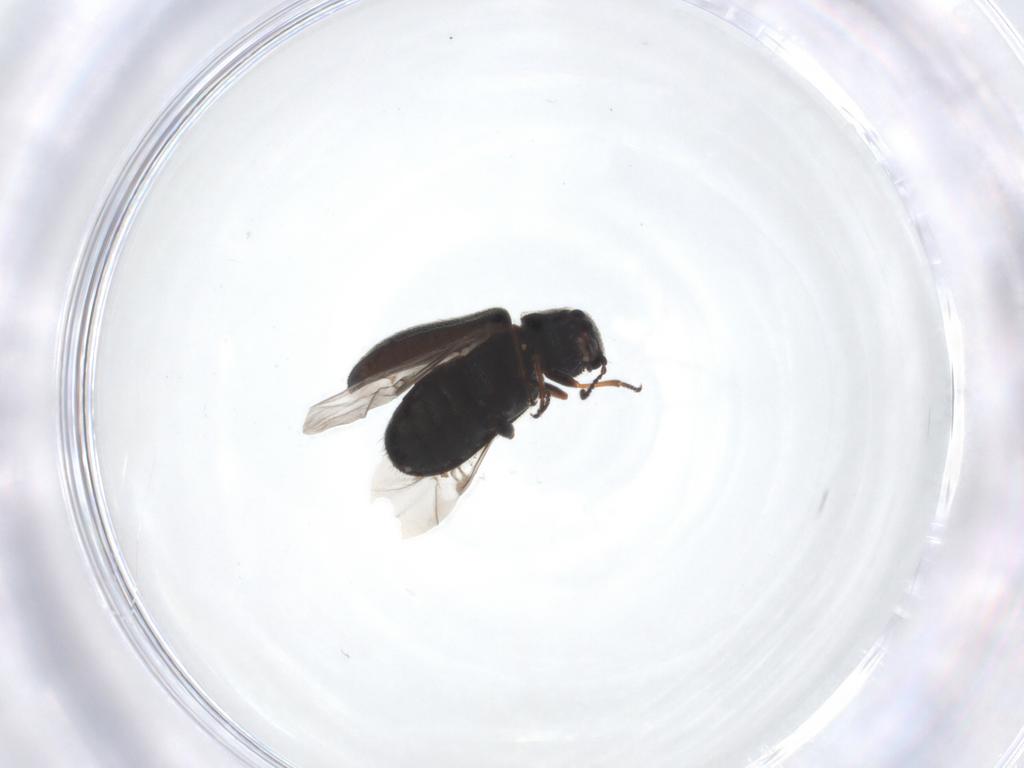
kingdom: Animalia
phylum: Arthropoda
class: Insecta
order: Coleoptera
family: Melyridae
